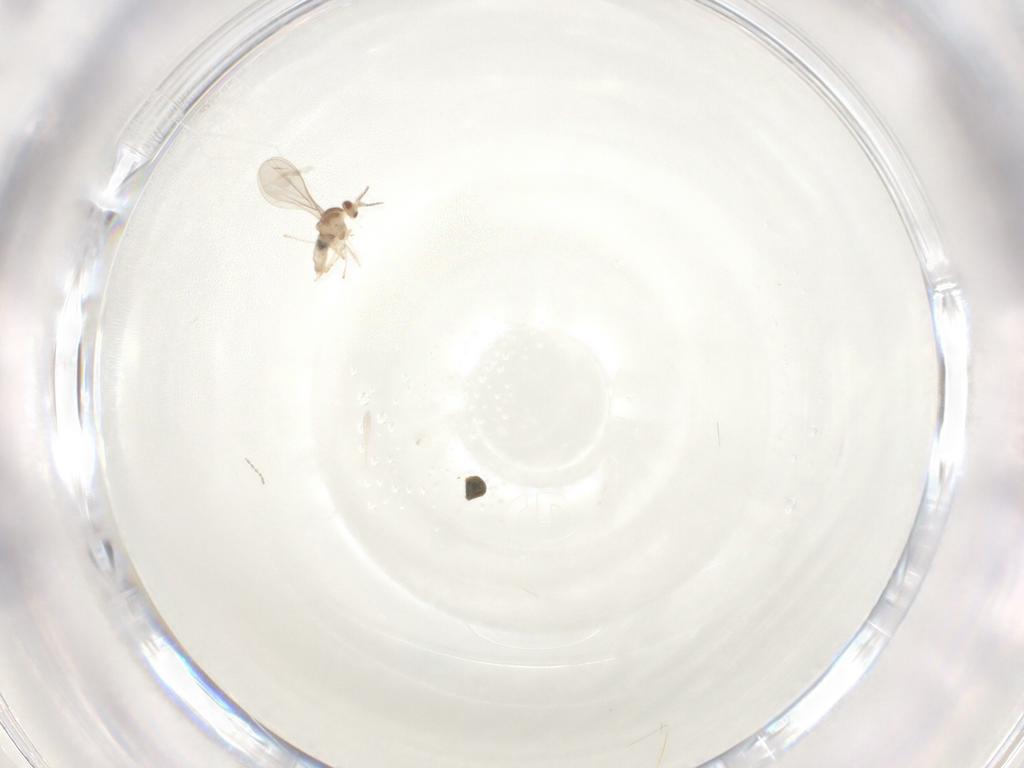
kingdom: Animalia
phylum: Arthropoda
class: Insecta
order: Diptera
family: Cecidomyiidae
